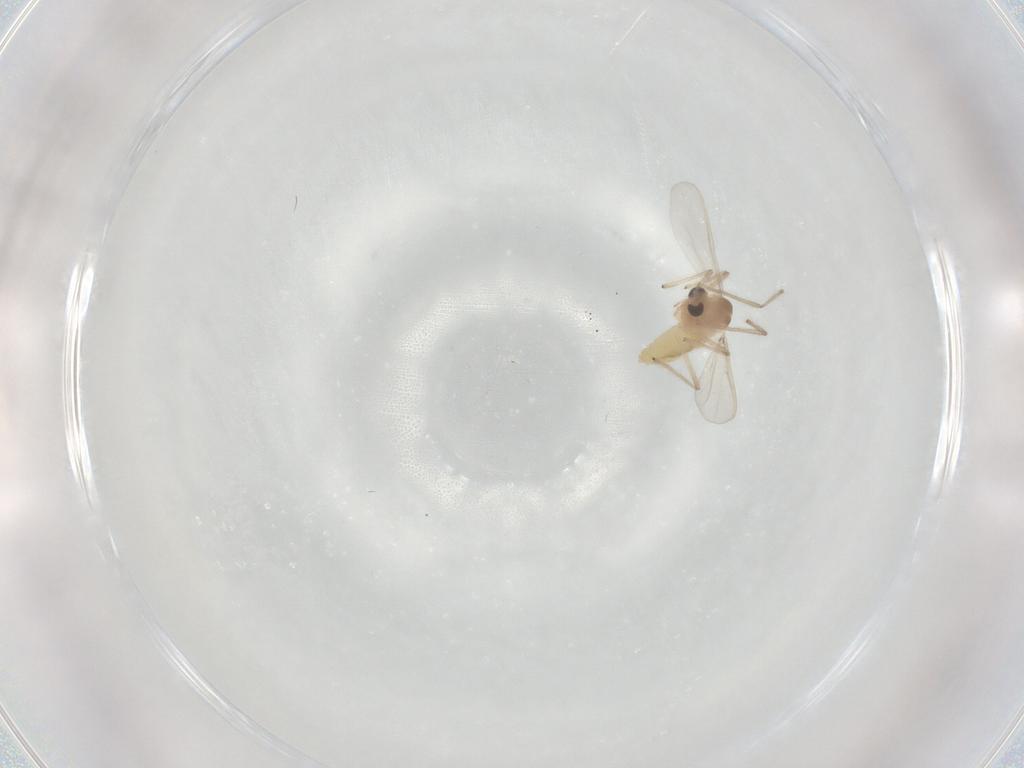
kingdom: Animalia
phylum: Arthropoda
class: Insecta
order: Diptera
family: Chironomidae
